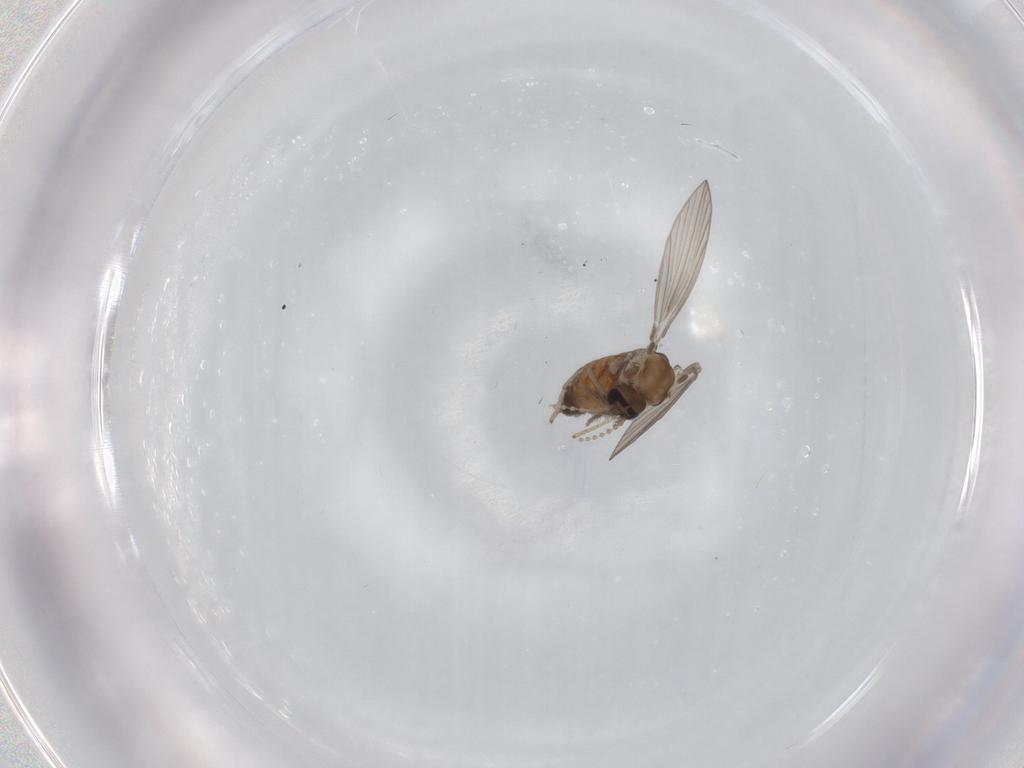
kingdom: Animalia
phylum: Arthropoda
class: Insecta
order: Diptera
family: Psychodidae
